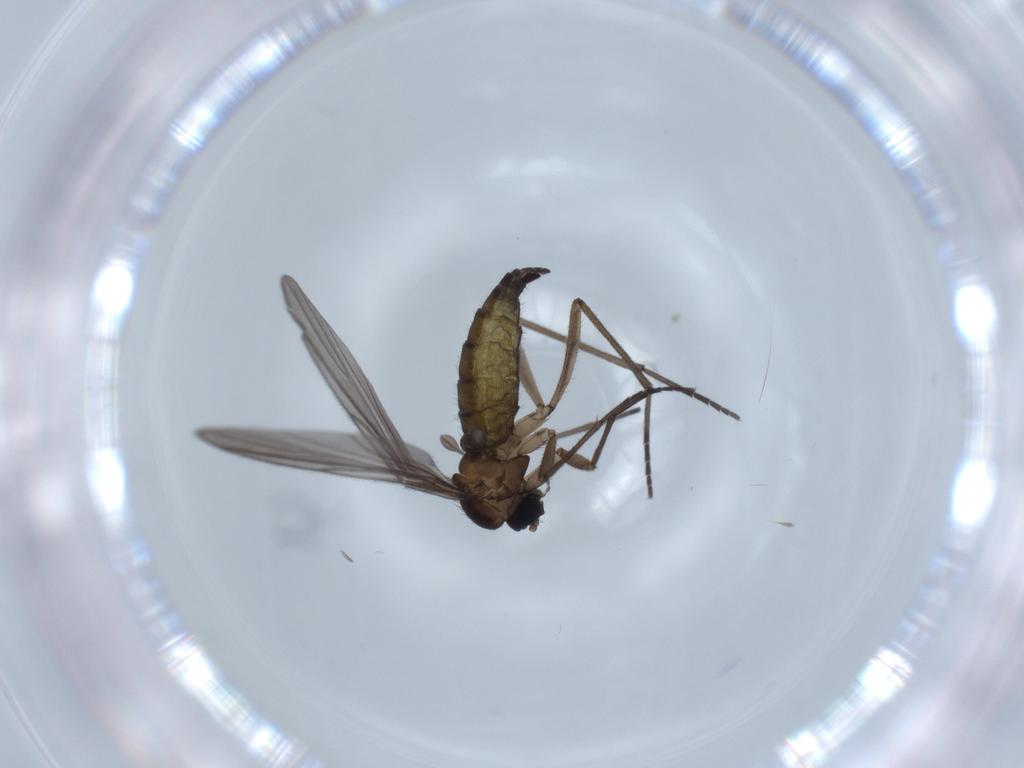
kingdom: Animalia
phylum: Arthropoda
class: Insecta
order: Diptera
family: Sciaridae
